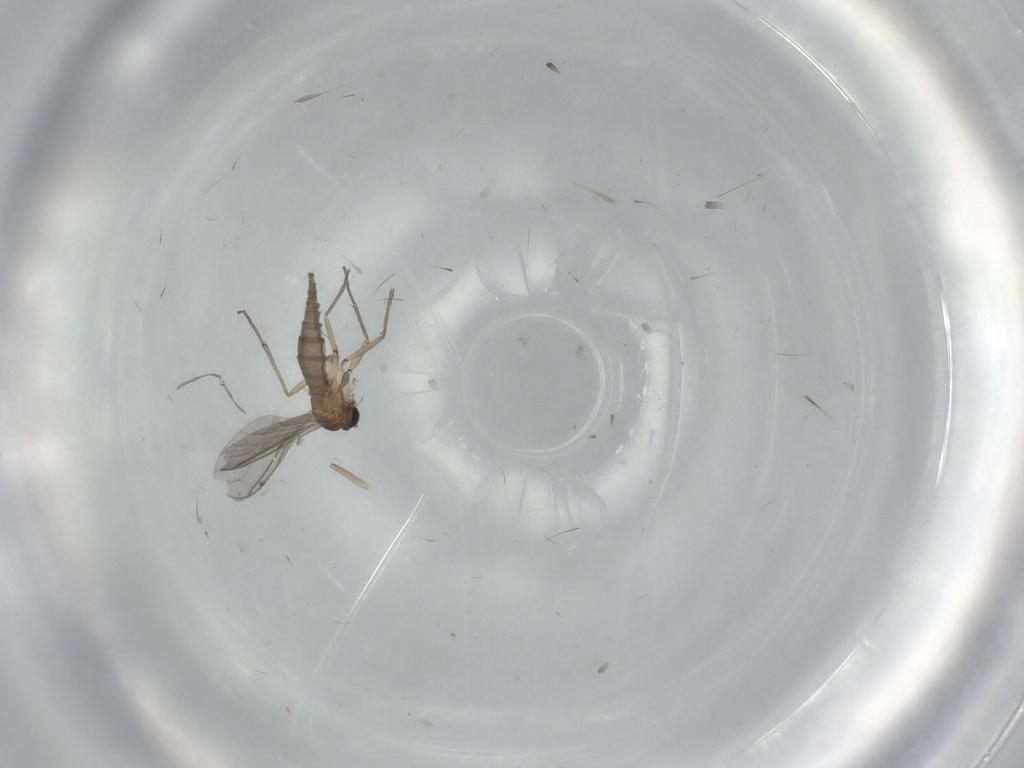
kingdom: Animalia
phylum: Arthropoda
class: Insecta
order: Diptera
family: Sciaridae
